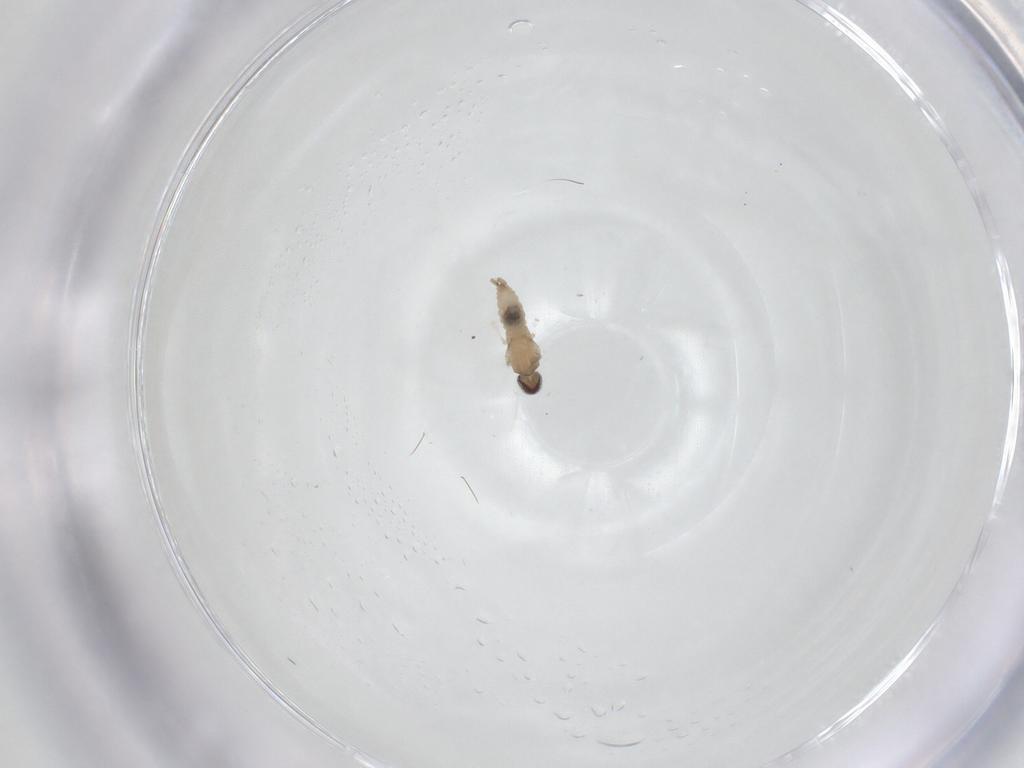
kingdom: Animalia
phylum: Arthropoda
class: Insecta
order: Diptera
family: Cecidomyiidae
